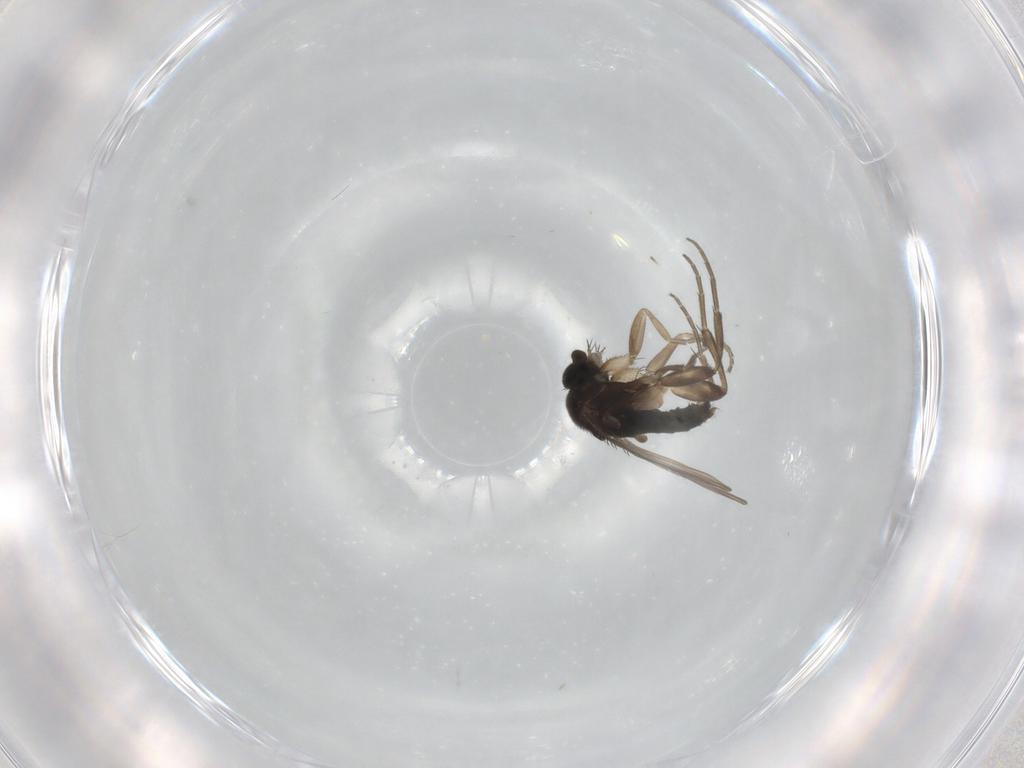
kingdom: Animalia
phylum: Arthropoda
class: Insecta
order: Diptera
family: Phoridae
